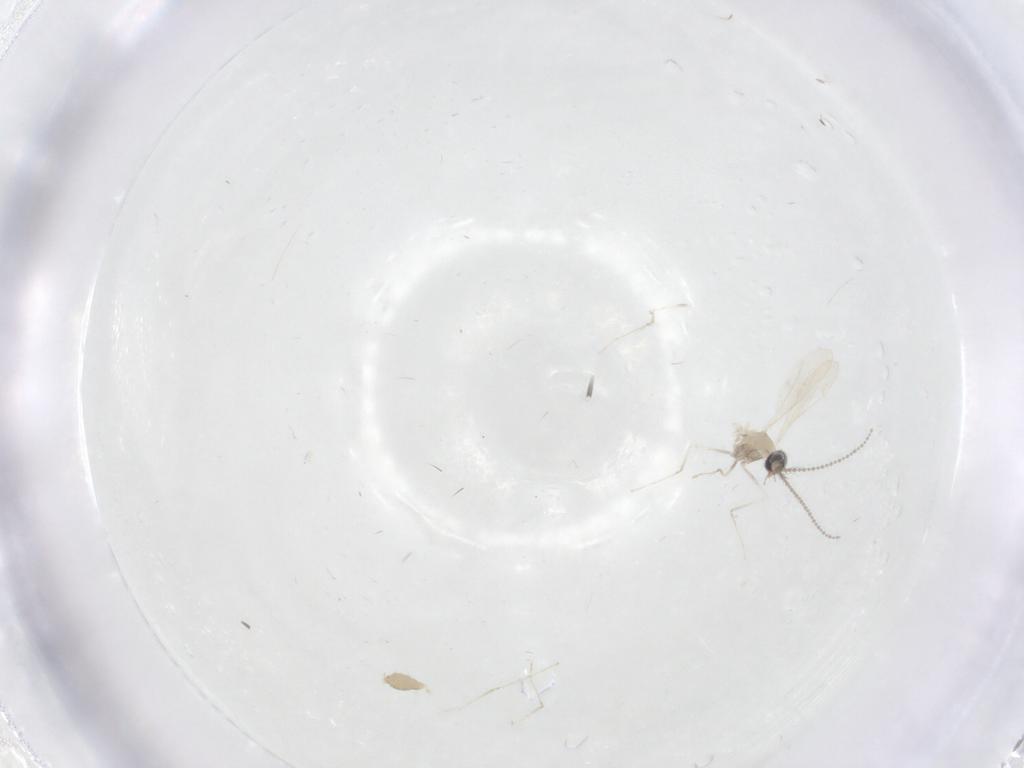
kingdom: Animalia
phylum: Arthropoda
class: Insecta
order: Diptera
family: Cecidomyiidae
